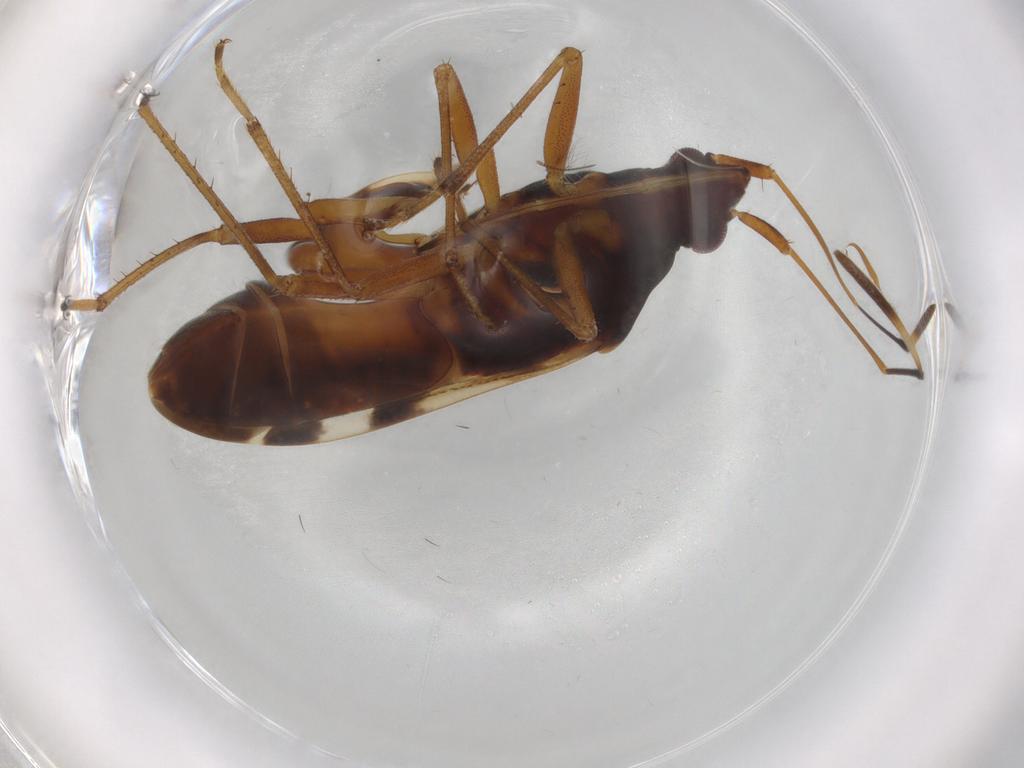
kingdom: Animalia
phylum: Arthropoda
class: Insecta
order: Hemiptera
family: Rhyparochromidae
